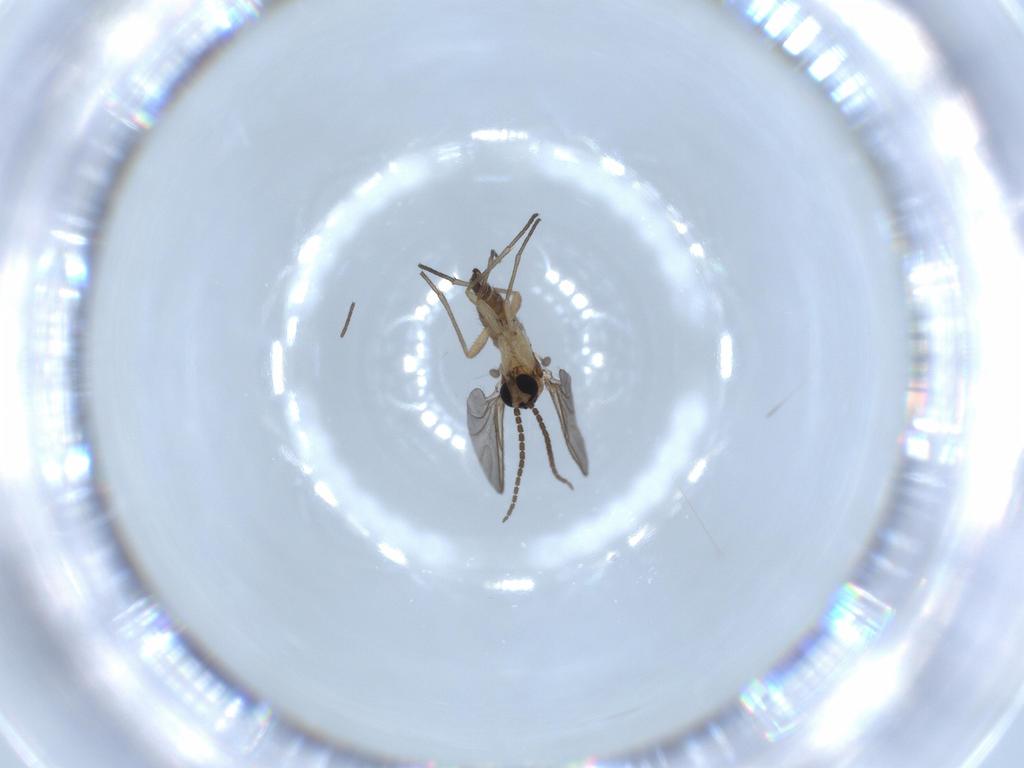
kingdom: Animalia
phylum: Arthropoda
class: Insecta
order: Diptera
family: Sciaridae
